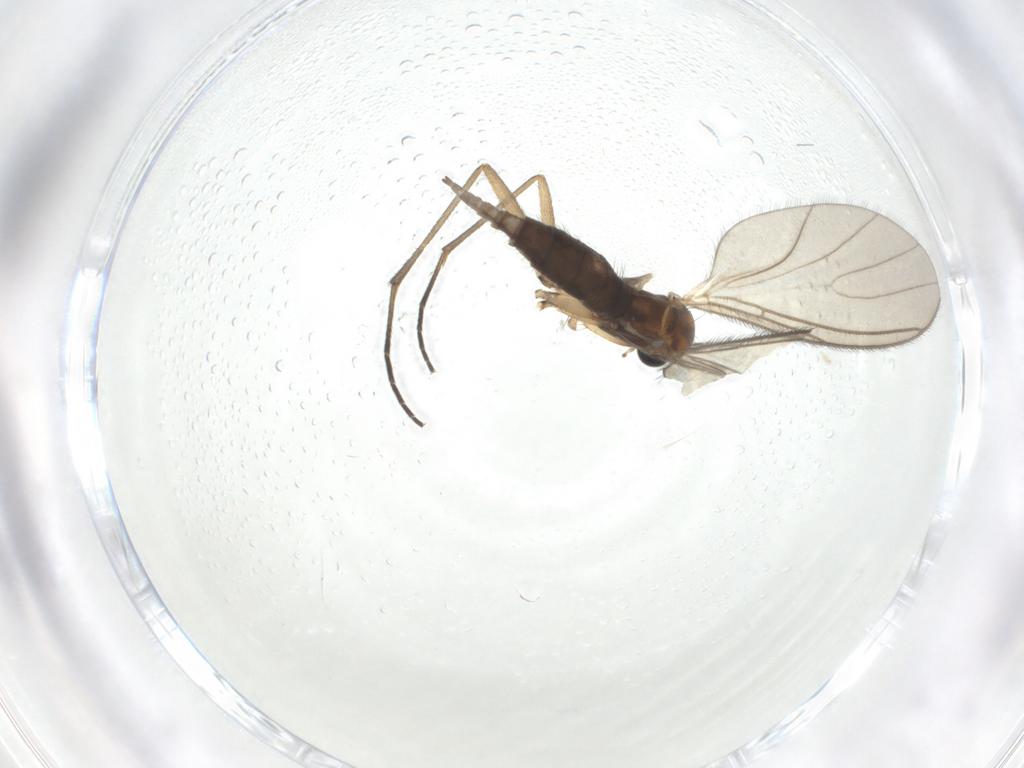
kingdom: Animalia
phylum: Arthropoda
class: Insecta
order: Diptera
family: Sciaridae
